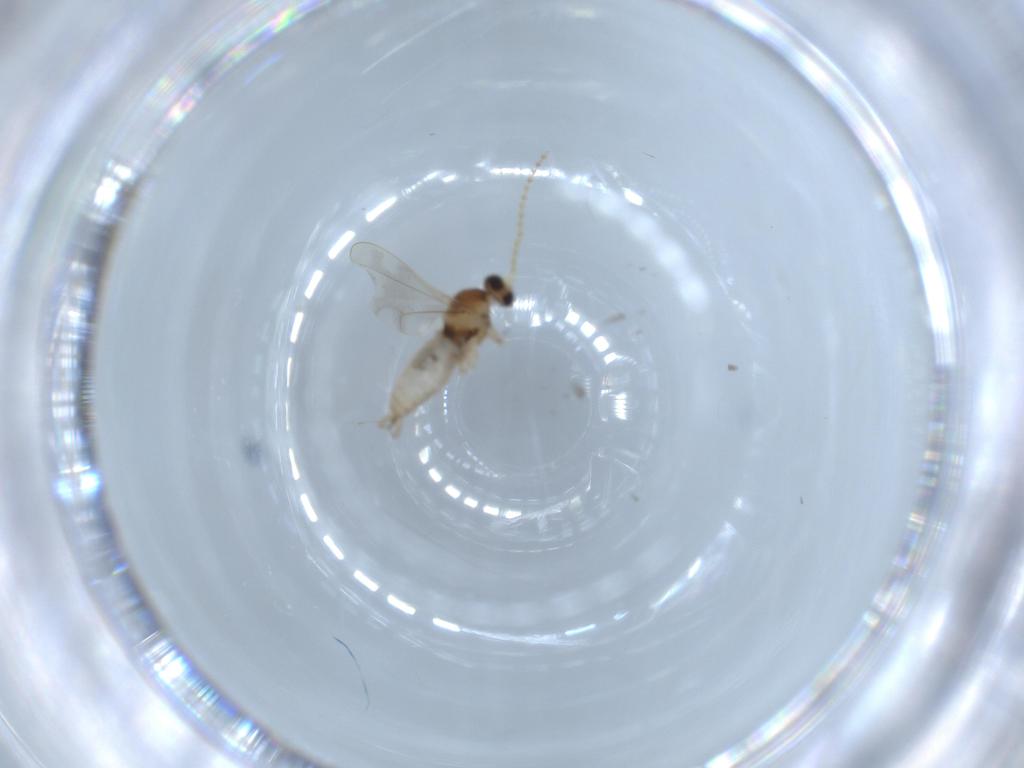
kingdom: Animalia
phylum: Arthropoda
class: Insecta
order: Diptera
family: Cecidomyiidae
